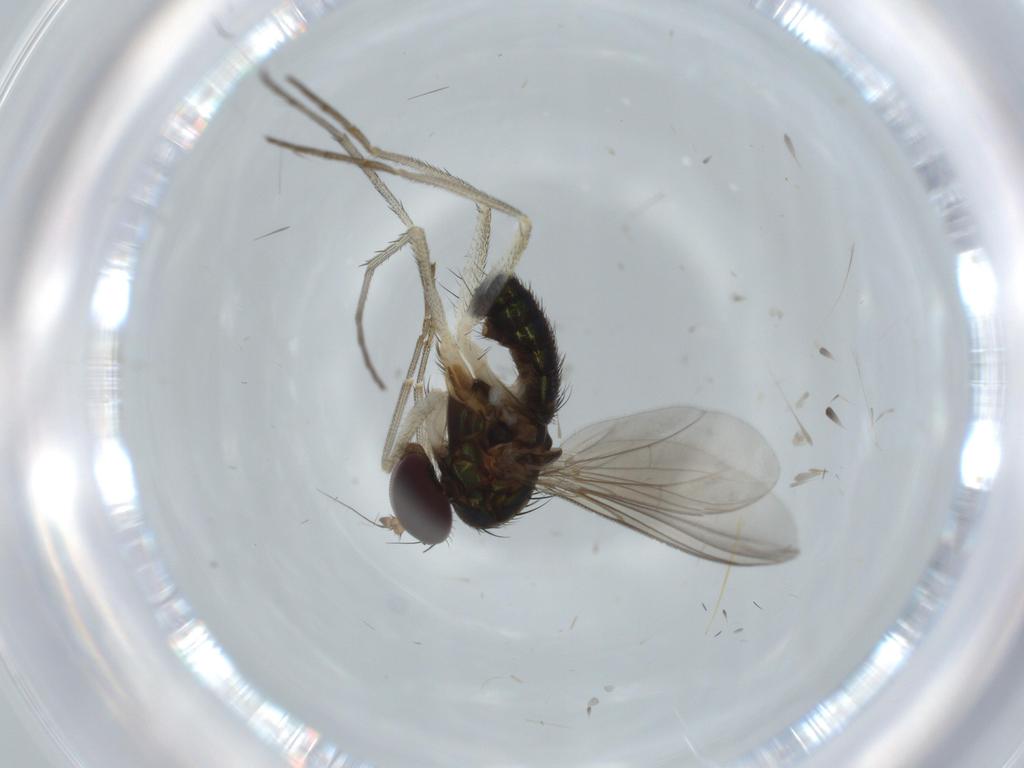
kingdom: Animalia
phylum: Arthropoda
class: Insecta
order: Diptera
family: Dolichopodidae
